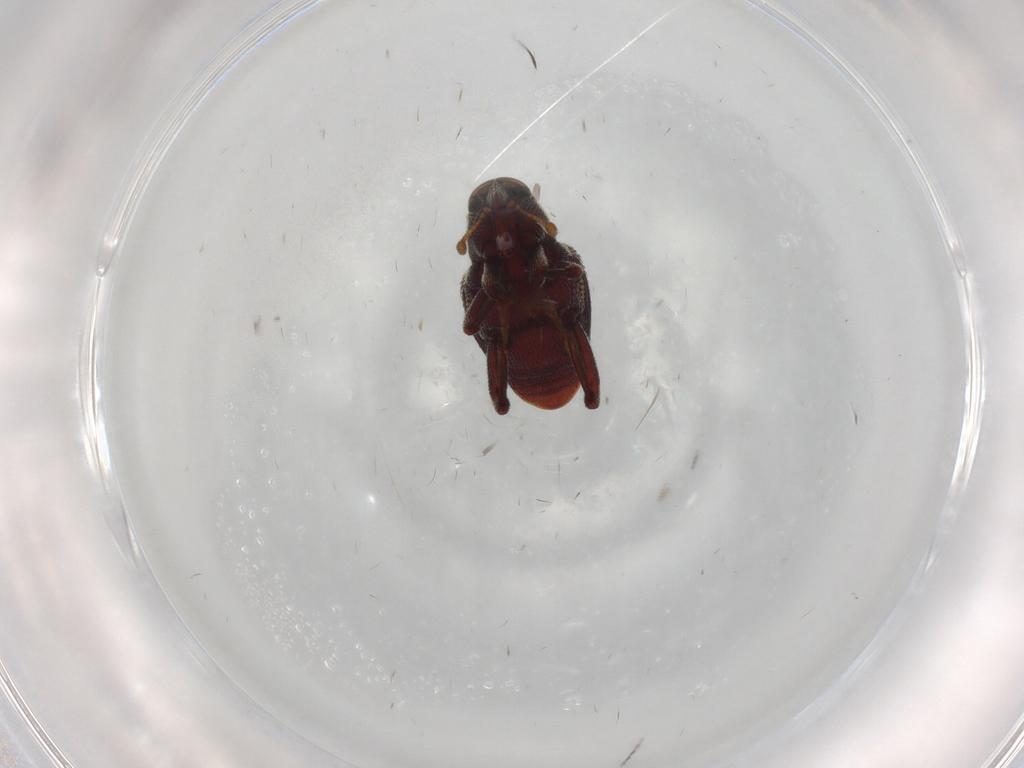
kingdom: Animalia
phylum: Arthropoda
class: Insecta
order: Coleoptera
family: Curculionidae
